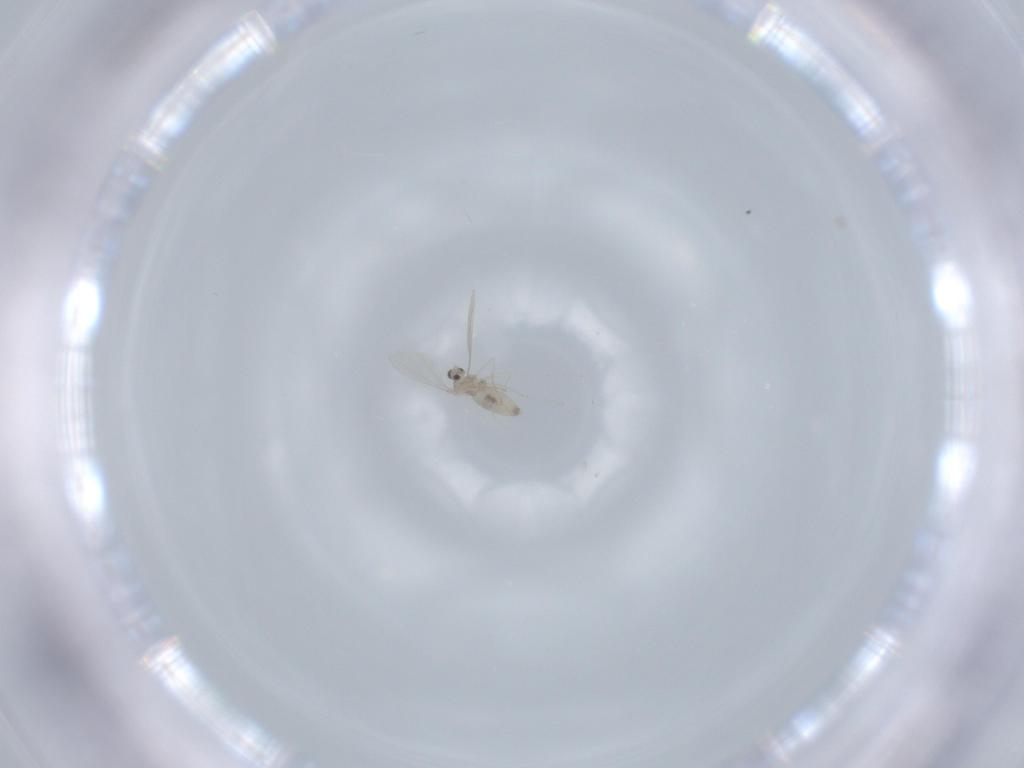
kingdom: Animalia
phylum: Arthropoda
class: Insecta
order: Diptera
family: Cecidomyiidae
